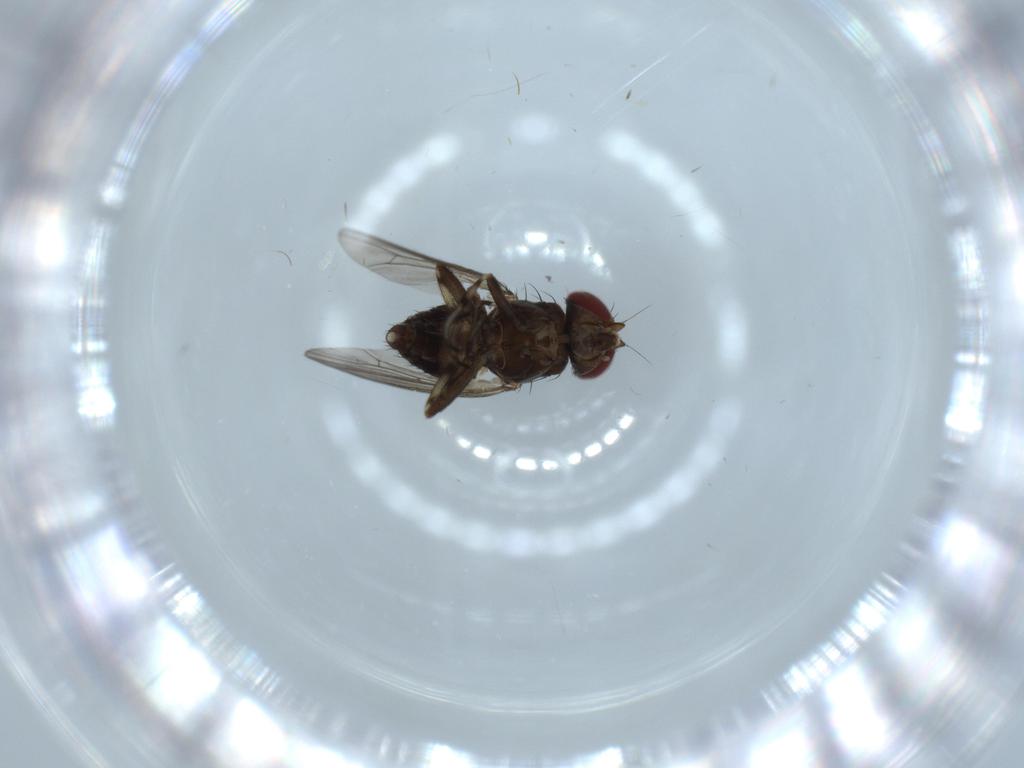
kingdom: Animalia
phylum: Arthropoda
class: Insecta
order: Diptera
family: Heleomyzidae
